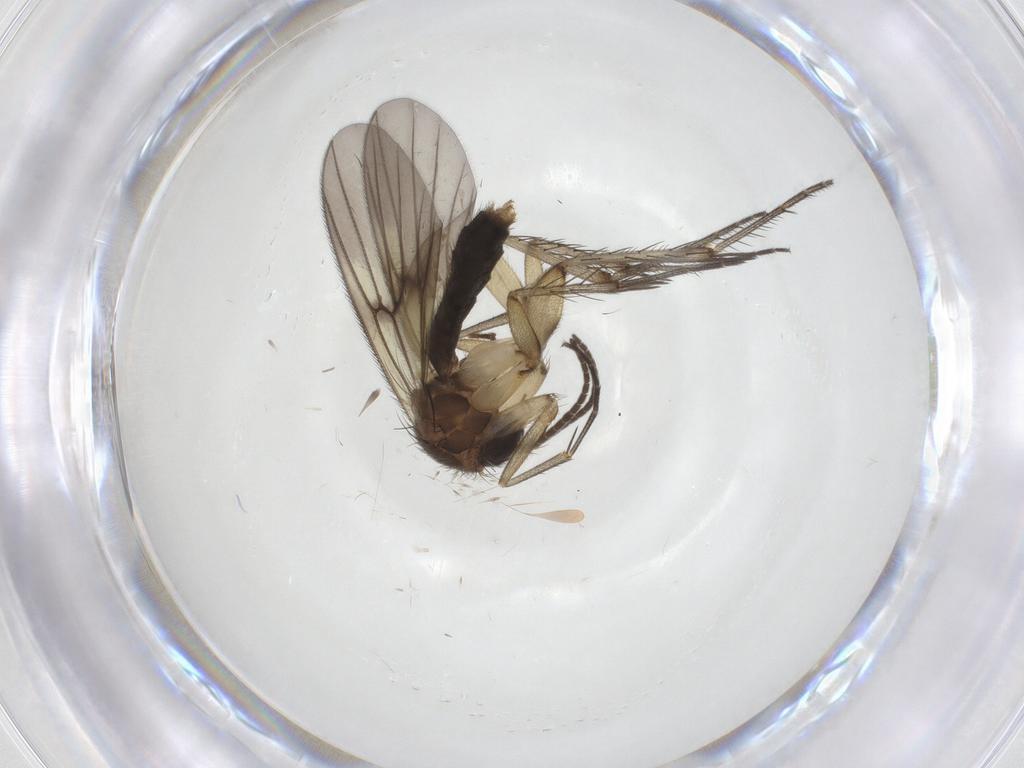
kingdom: Animalia
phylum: Arthropoda
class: Insecta
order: Diptera
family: Mycetophilidae
